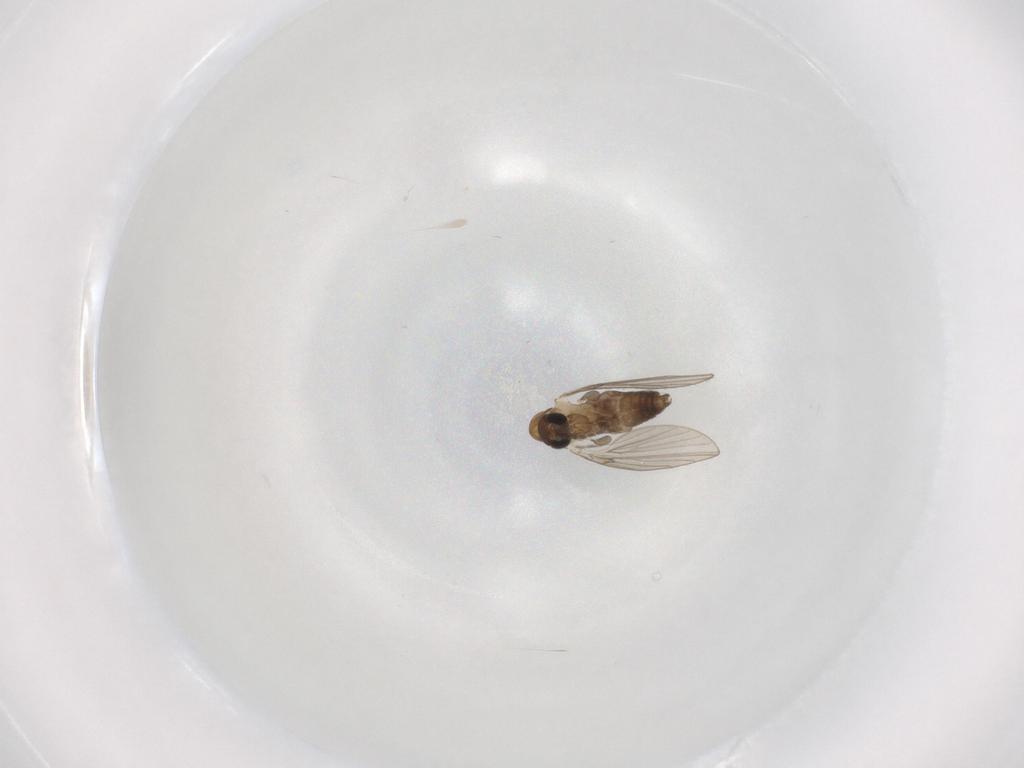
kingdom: Animalia
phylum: Arthropoda
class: Insecta
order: Diptera
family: Psychodidae
